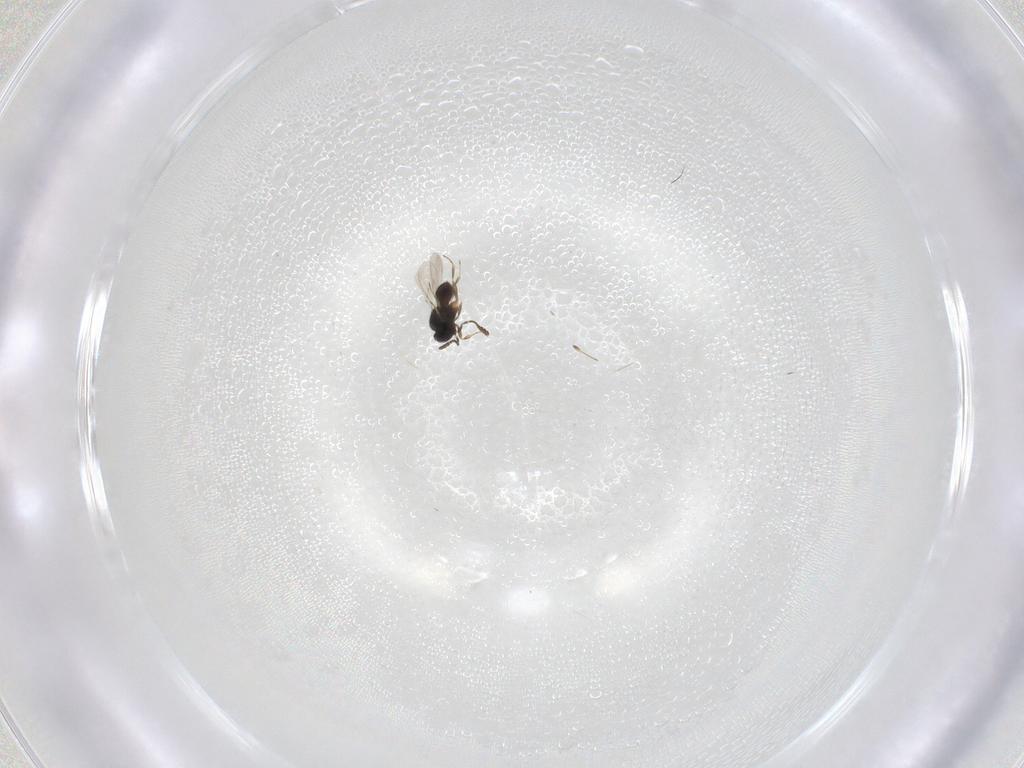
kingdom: Animalia
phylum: Arthropoda
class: Insecta
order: Hymenoptera
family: Scelionidae
